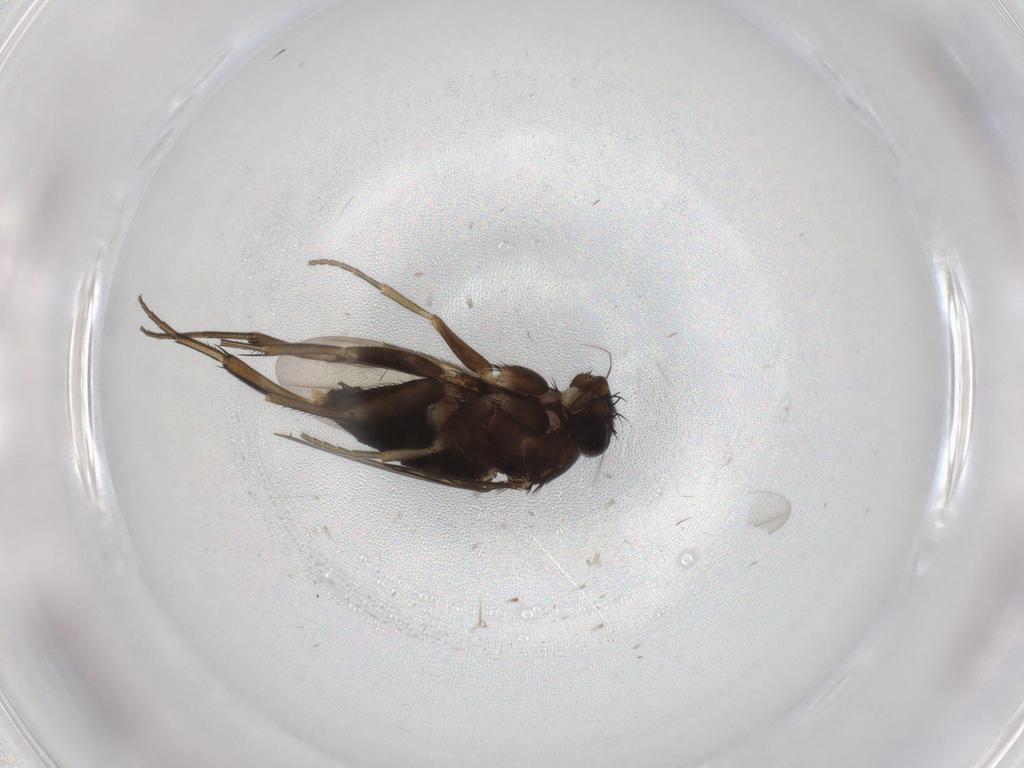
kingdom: Animalia
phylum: Arthropoda
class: Insecta
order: Diptera
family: Phoridae
